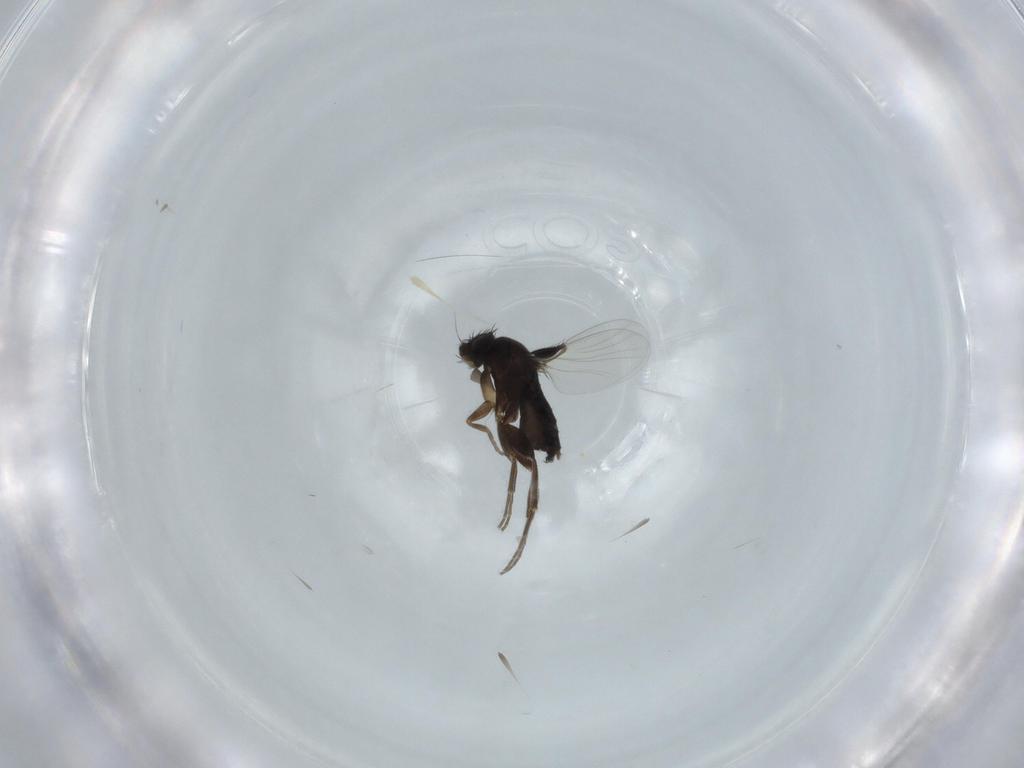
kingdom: Animalia
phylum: Arthropoda
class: Insecta
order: Diptera
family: Phoridae
